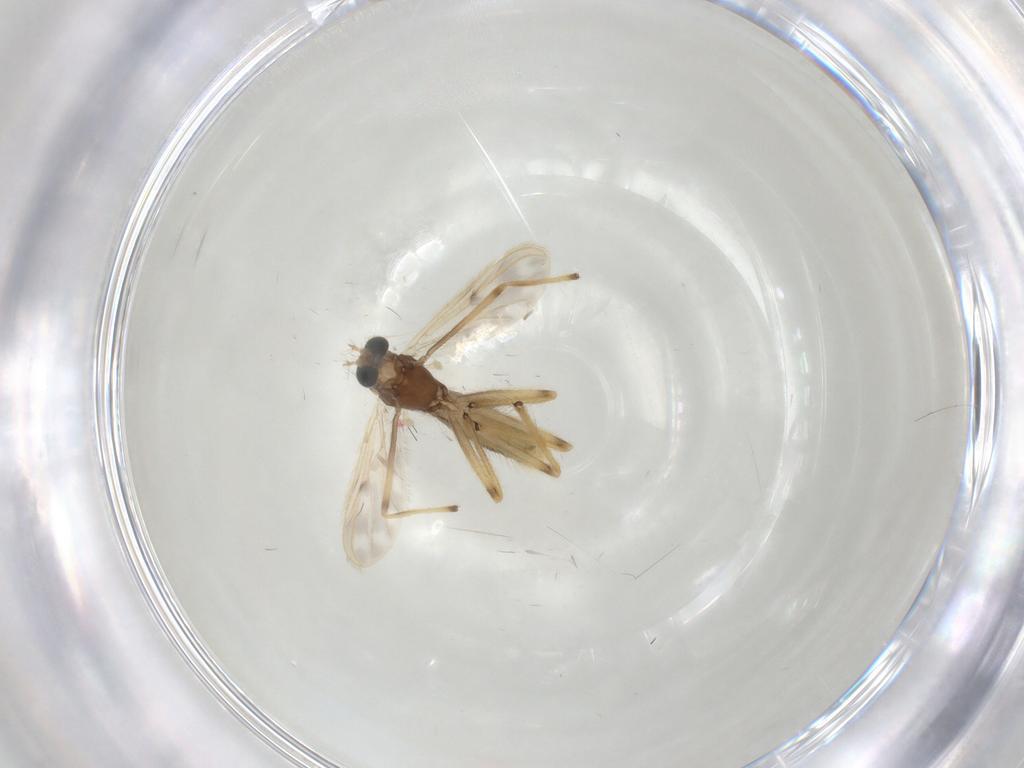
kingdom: Animalia
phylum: Arthropoda
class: Insecta
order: Diptera
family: Chironomidae
